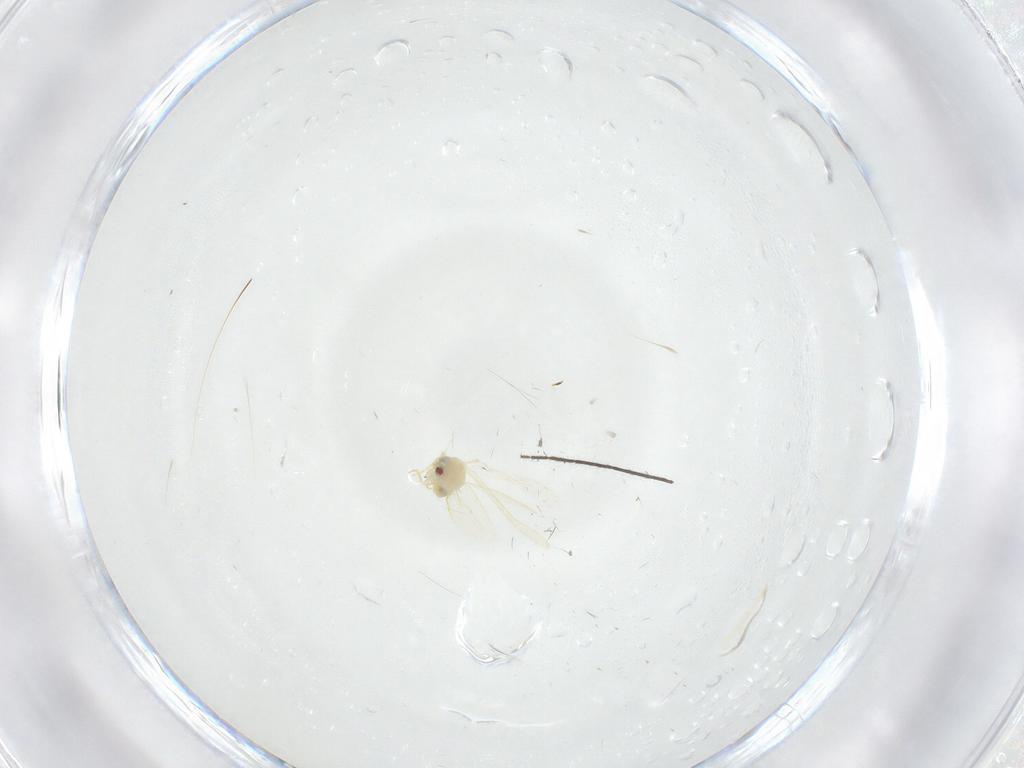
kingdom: Animalia
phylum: Arthropoda
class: Insecta
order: Diptera
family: Chironomidae
